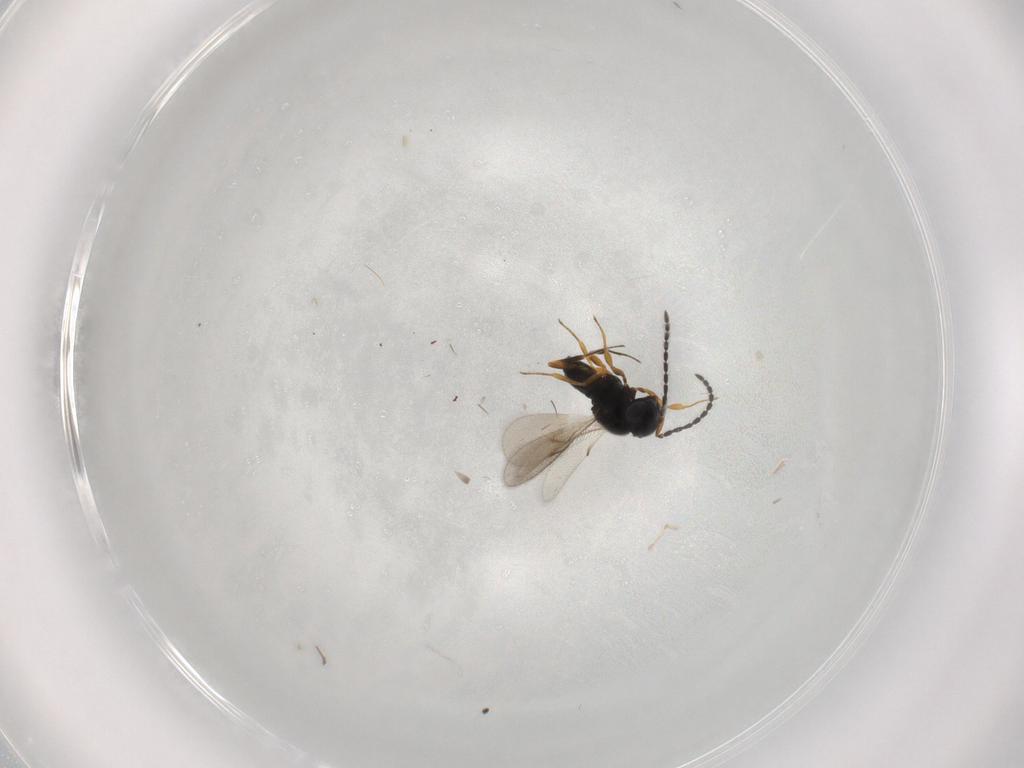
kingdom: Animalia
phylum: Arthropoda
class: Insecta
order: Hymenoptera
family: Scelionidae
